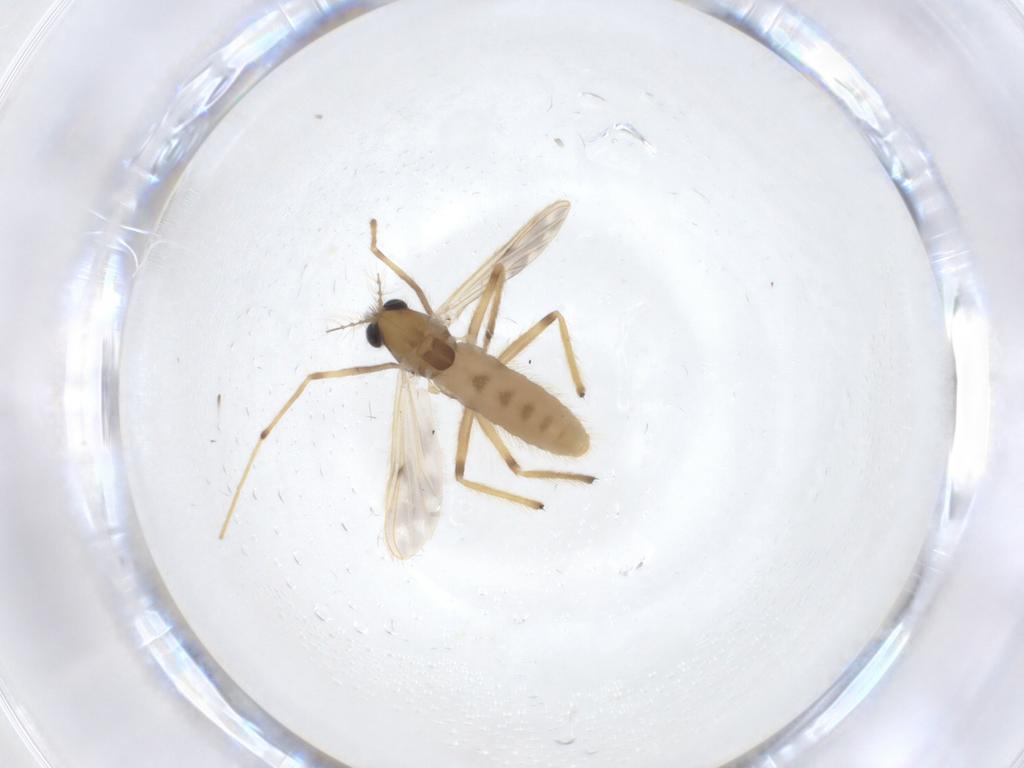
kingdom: Animalia
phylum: Arthropoda
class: Insecta
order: Diptera
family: Chironomidae
